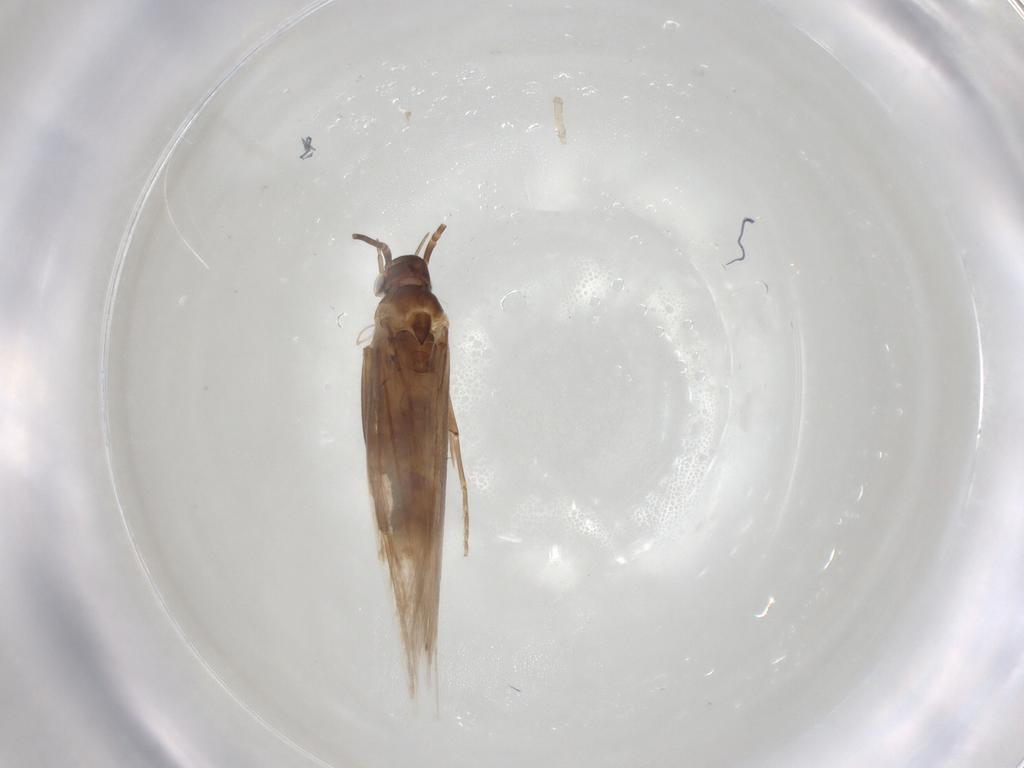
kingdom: Animalia
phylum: Arthropoda
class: Insecta
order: Lepidoptera
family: Coleophoridae
